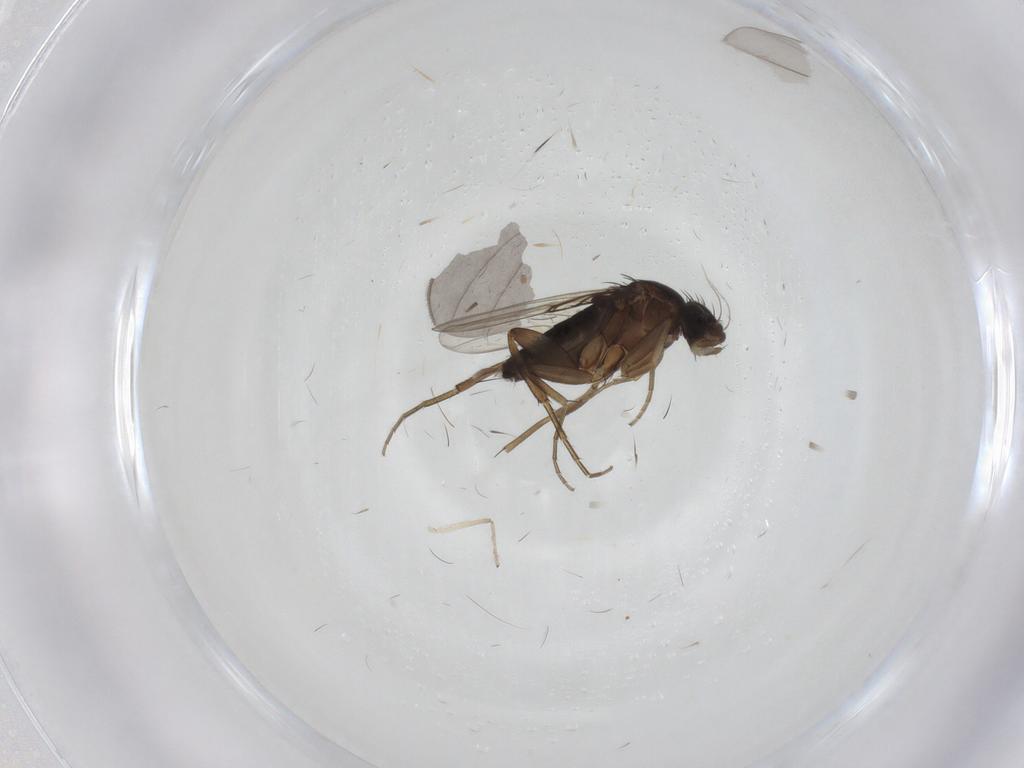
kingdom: Animalia
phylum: Arthropoda
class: Insecta
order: Diptera
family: Phoridae
